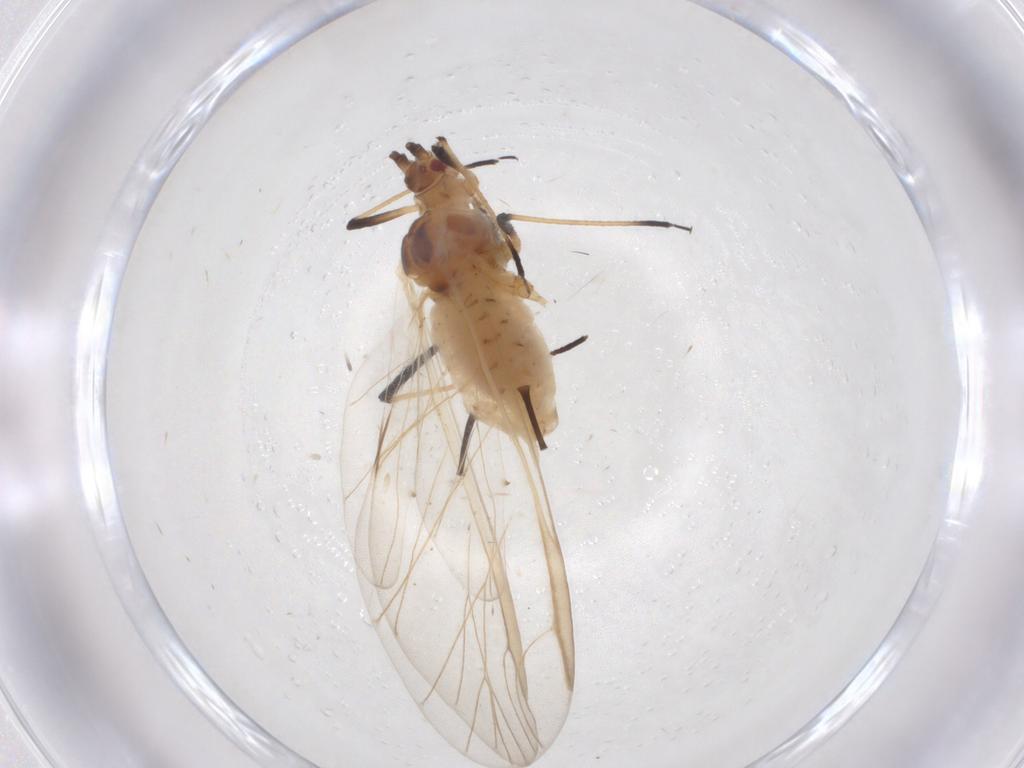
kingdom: Animalia
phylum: Arthropoda
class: Insecta
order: Hemiptera
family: Aphididae
